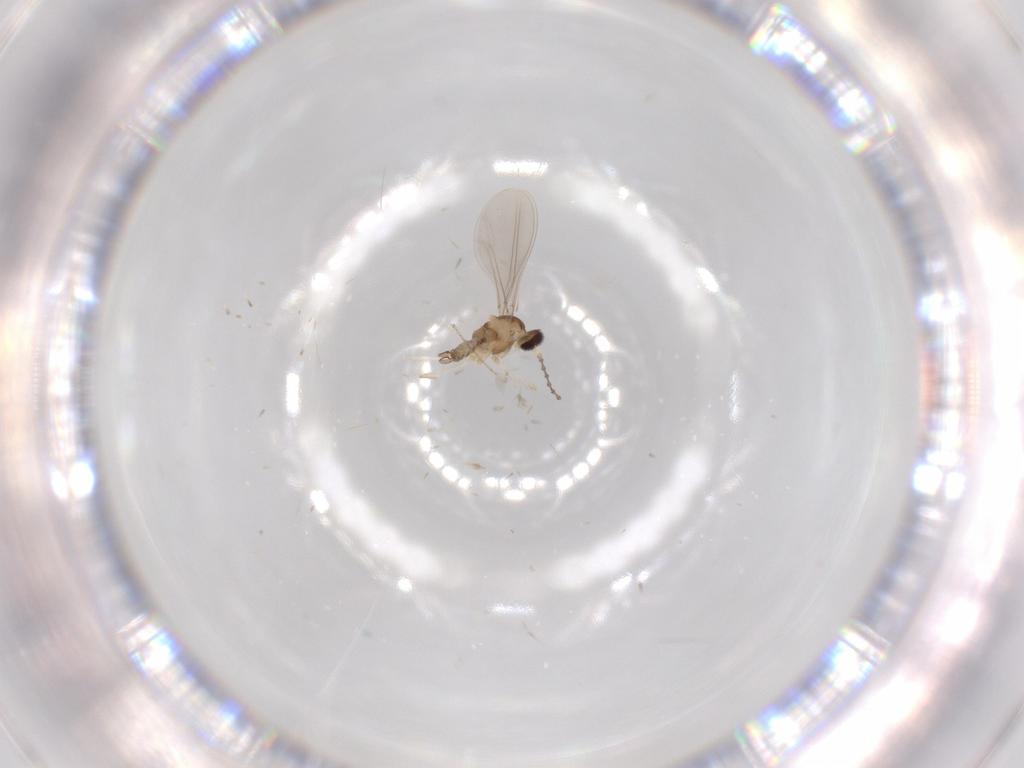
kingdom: Animalia
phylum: Arthropoda
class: Insecta
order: Diptera
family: Cecidomyiidae
